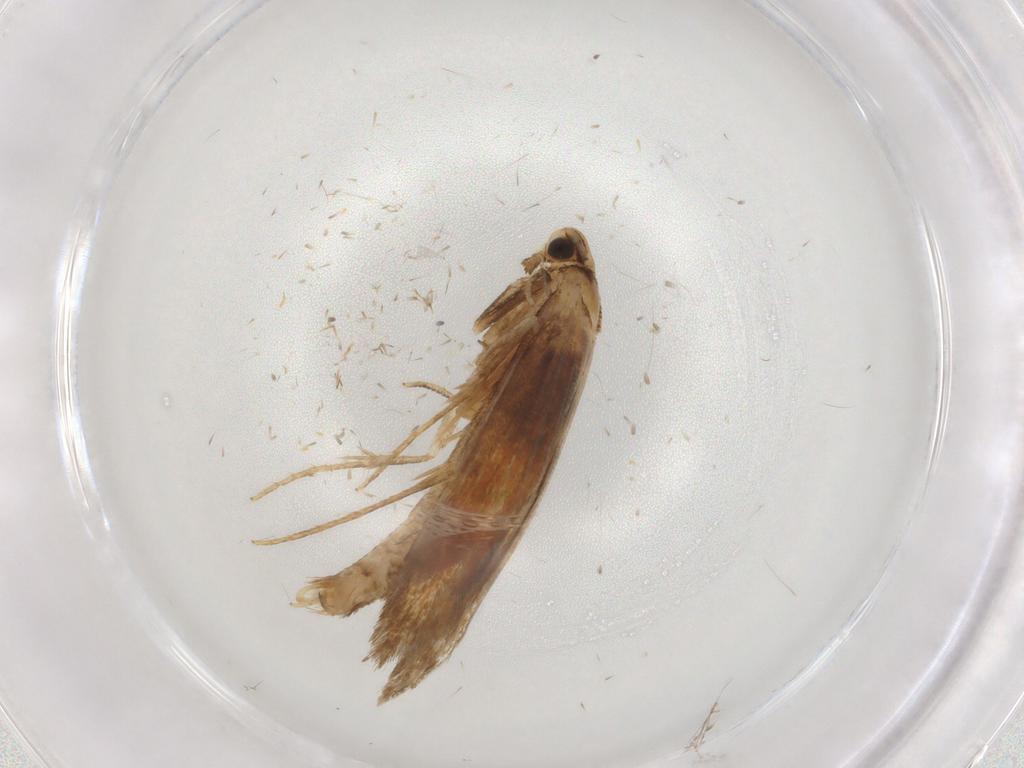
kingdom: Animalia
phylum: Arthropoda
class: Insecta
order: Lepidoptera
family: Tineidae
